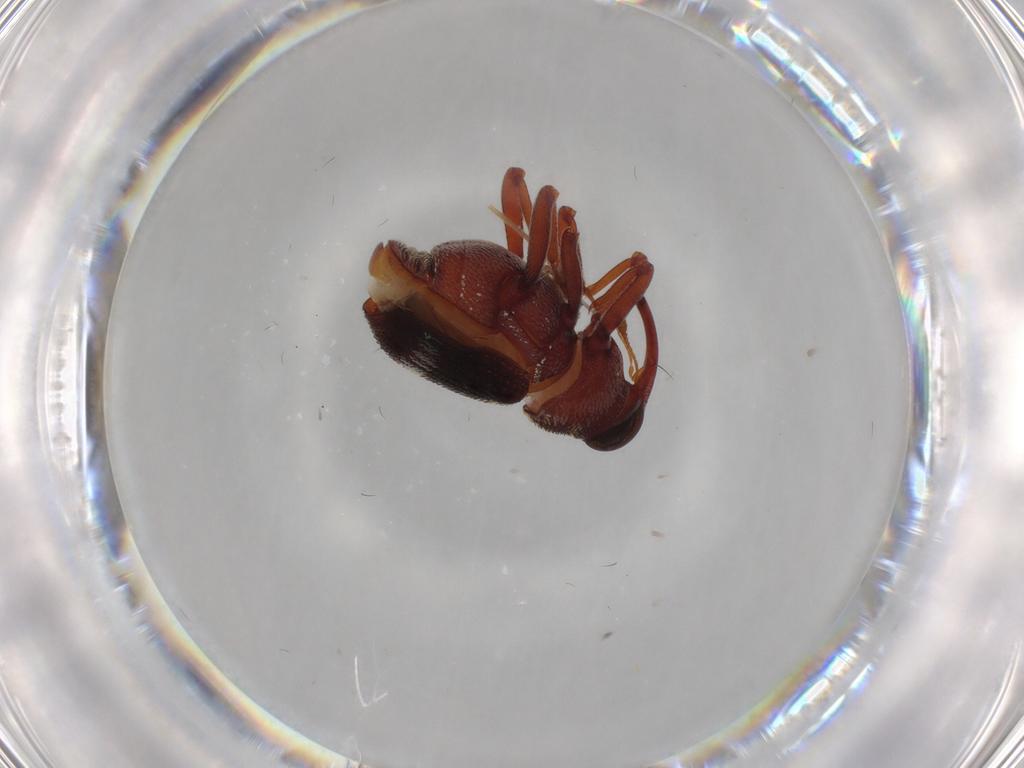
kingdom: Animalia
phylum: Arthropoda
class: Insecta
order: Coleoptera
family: Curculionidae
